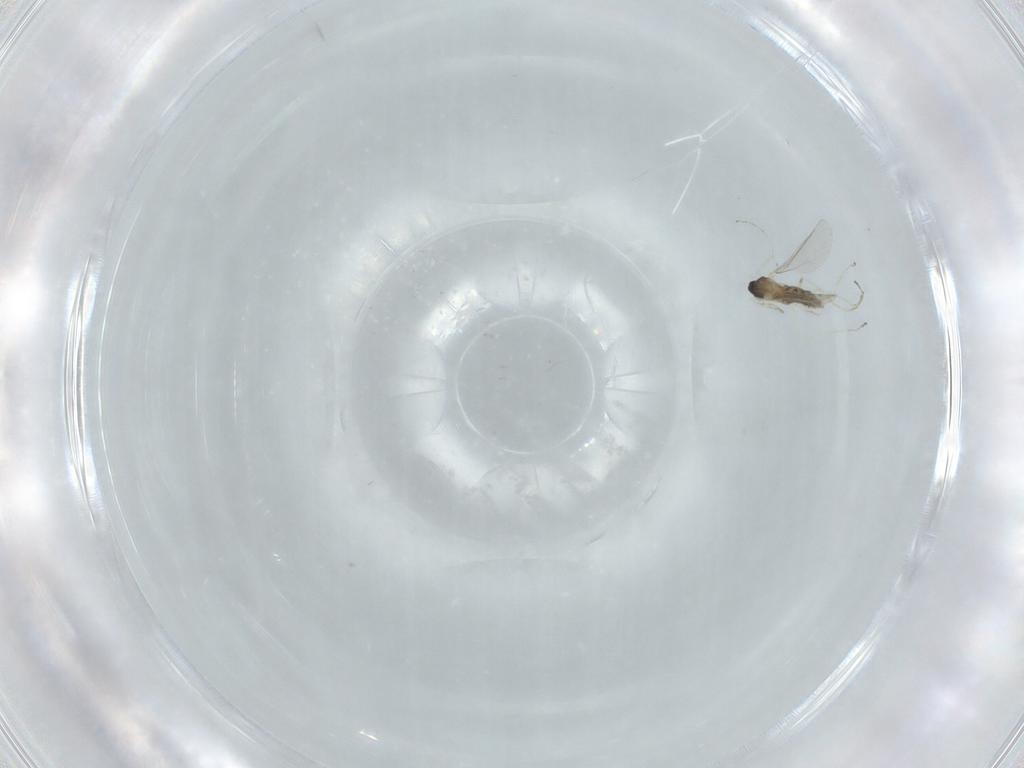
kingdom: Animalia
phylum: Arthropoda
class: Insecta
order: Diptera
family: Cecidomyiidae
